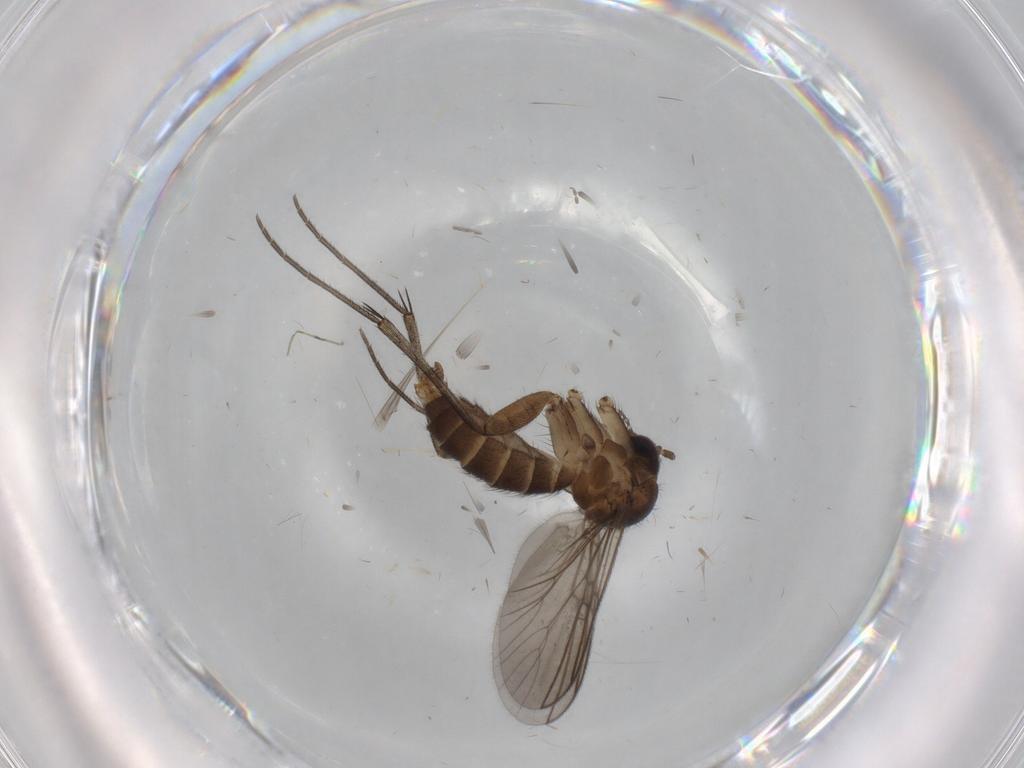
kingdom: Animalia
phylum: Arthropoda
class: Insecta
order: Diptera
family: Empididae
